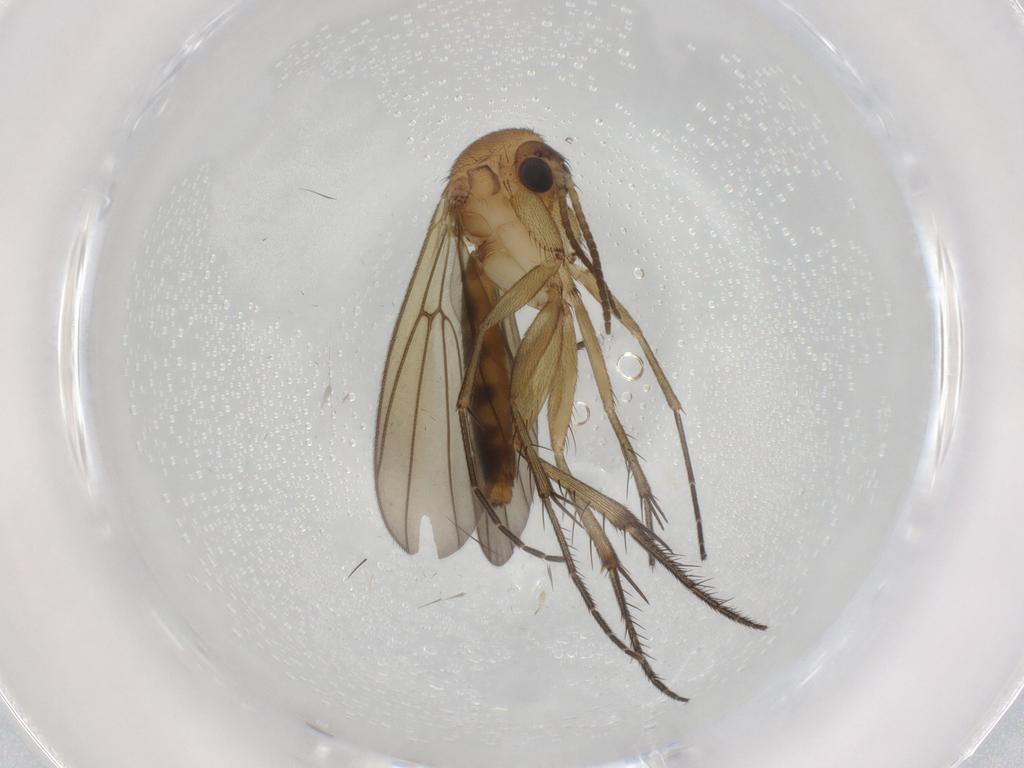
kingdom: Animalia
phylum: Arthropoda
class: Insecta
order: Diptera
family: Cecidomyiidae
